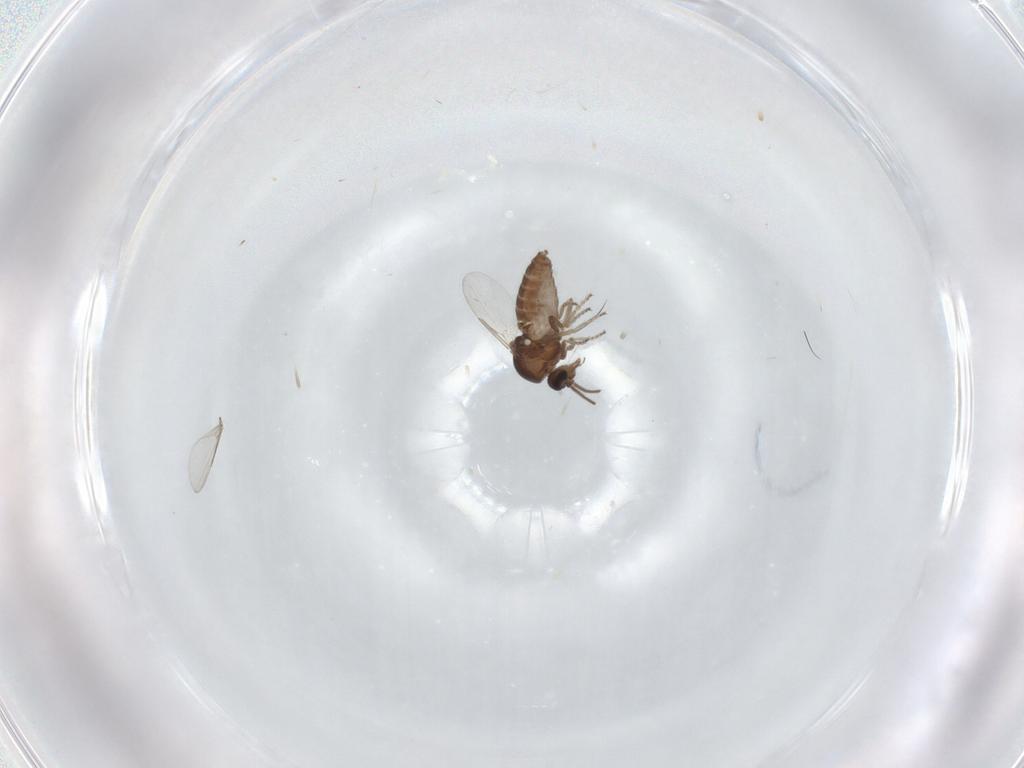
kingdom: Animalia
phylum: Arthropoda
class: Insecta
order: Diptera
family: Ceratopogonidae
